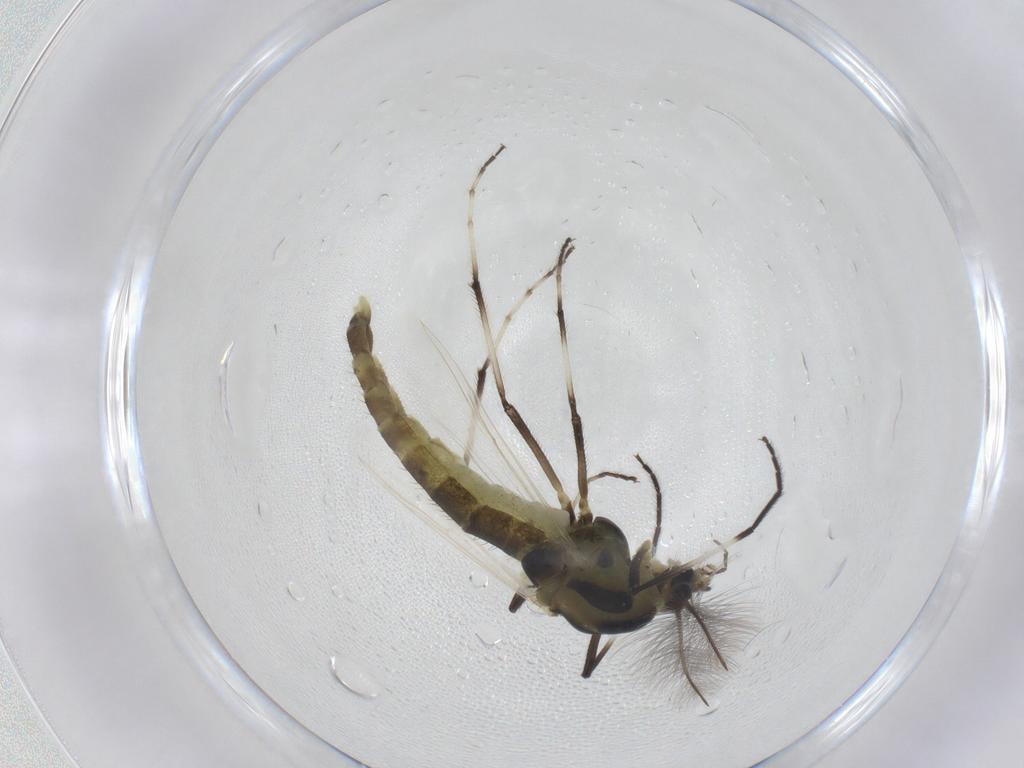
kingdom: Animalia
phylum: Arthropoda
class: Insecta
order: Diptera
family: Chironomidae
